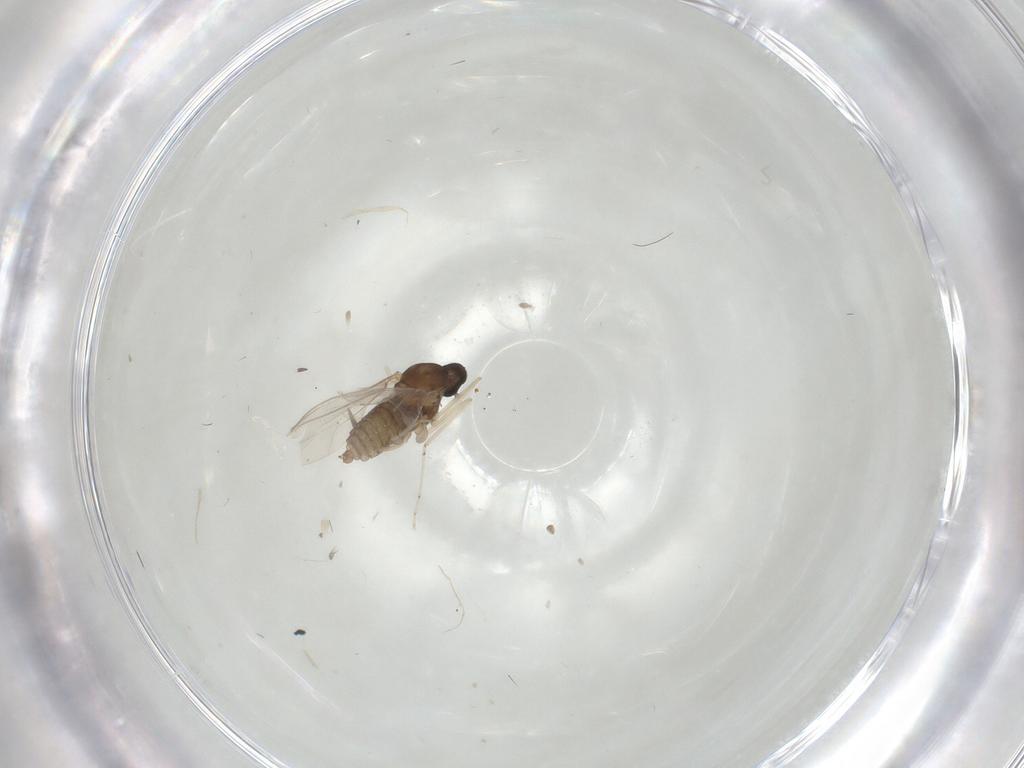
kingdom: Animalia
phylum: Arthropoda
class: Insecta
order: Diptera
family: Cecidomyiidae
